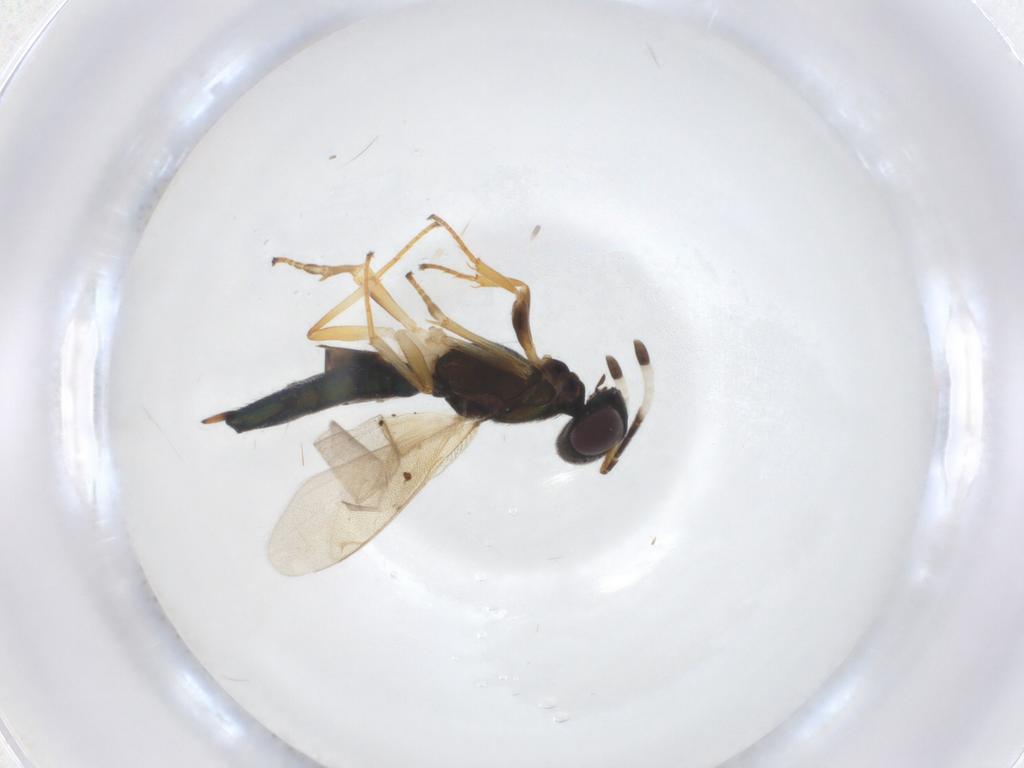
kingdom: Animalia
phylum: Arthropoda
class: Insecta
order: Hymenoptera
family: Eupelmidae
